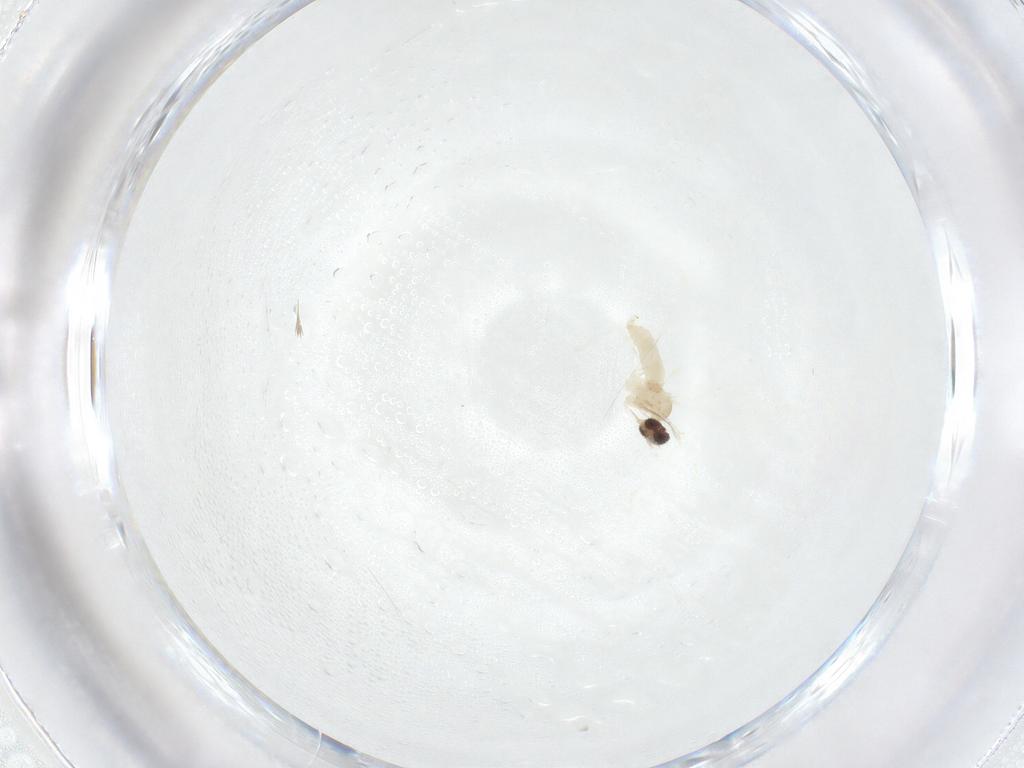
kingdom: Animalia
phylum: Arthropoda
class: Insecta
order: Diptera
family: Cecidomyiidae
